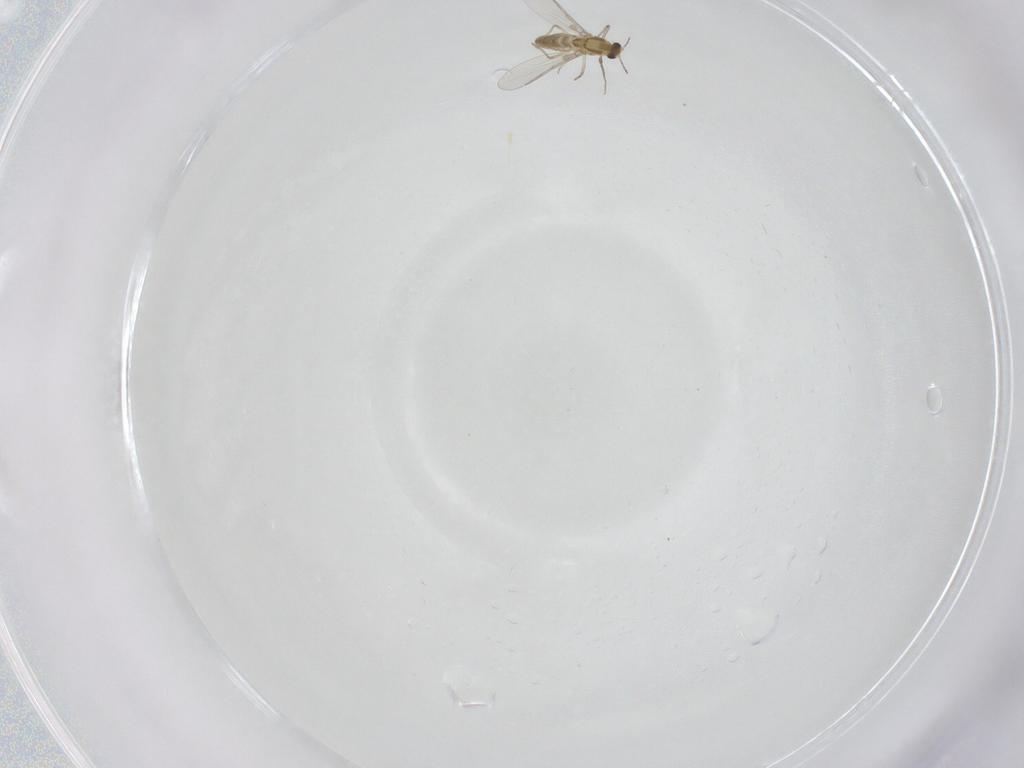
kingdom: Animalia
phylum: Arthropoda
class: Insecta
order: Diptera
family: Chironomidae
